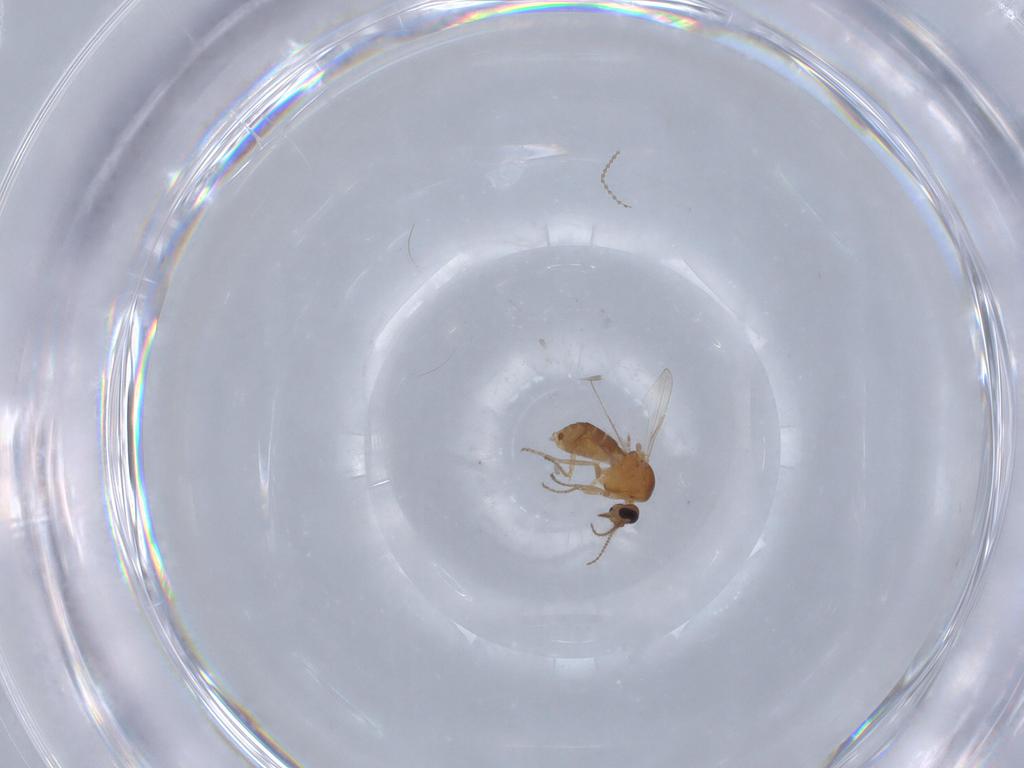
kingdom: Animalia
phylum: Arthropoda
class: Insecta
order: Diptera
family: Ceratopogonidae
